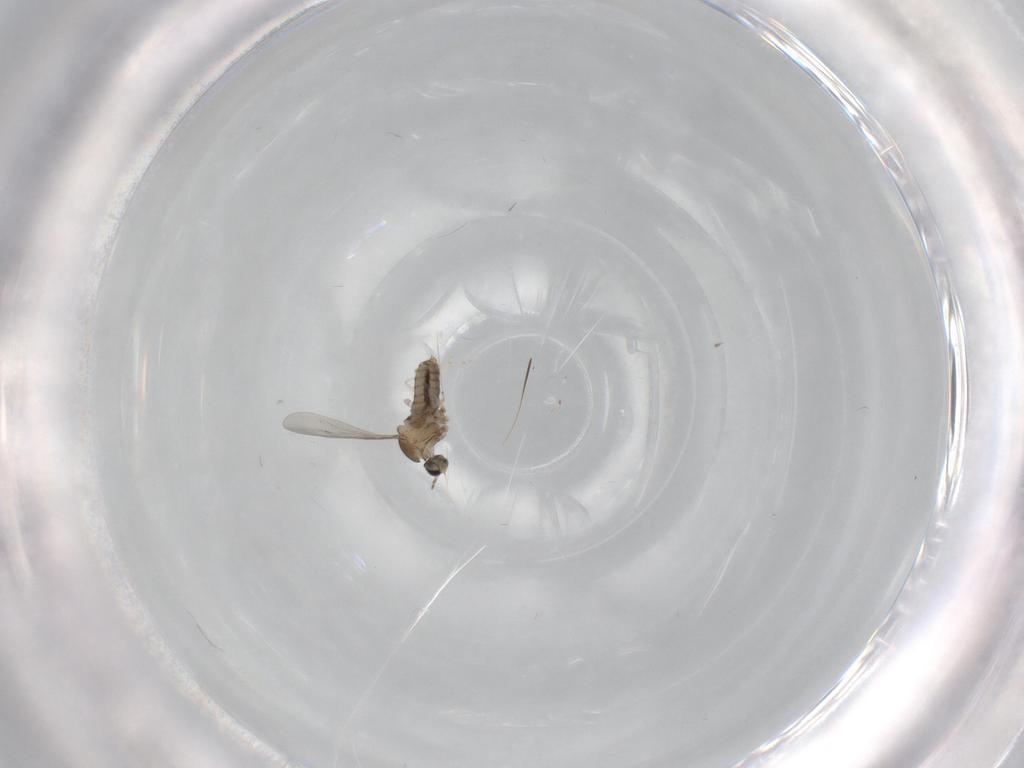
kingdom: Animalia
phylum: Arthropoda
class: Insecta
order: Diptera
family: Cecidomyiidae
